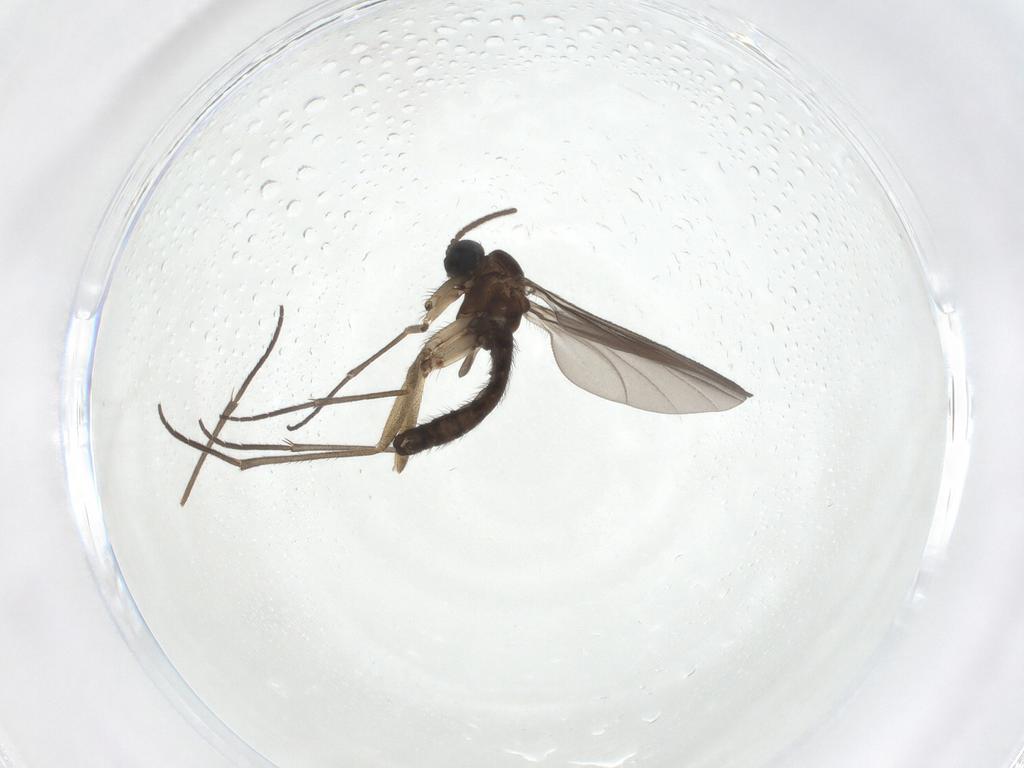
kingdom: Animalia
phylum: Arthropoda
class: Insecta
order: Diptera
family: Sciaridae
